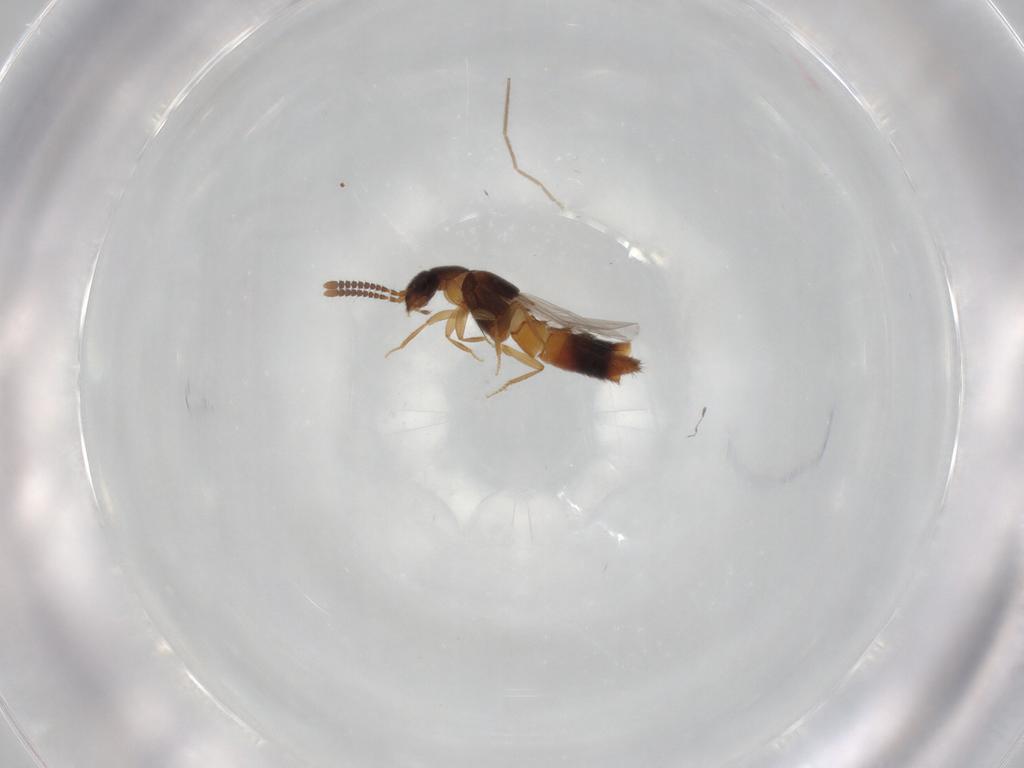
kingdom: Animalia
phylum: Arthropoda
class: Insecta
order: Coleoptera
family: Staphylinidae
